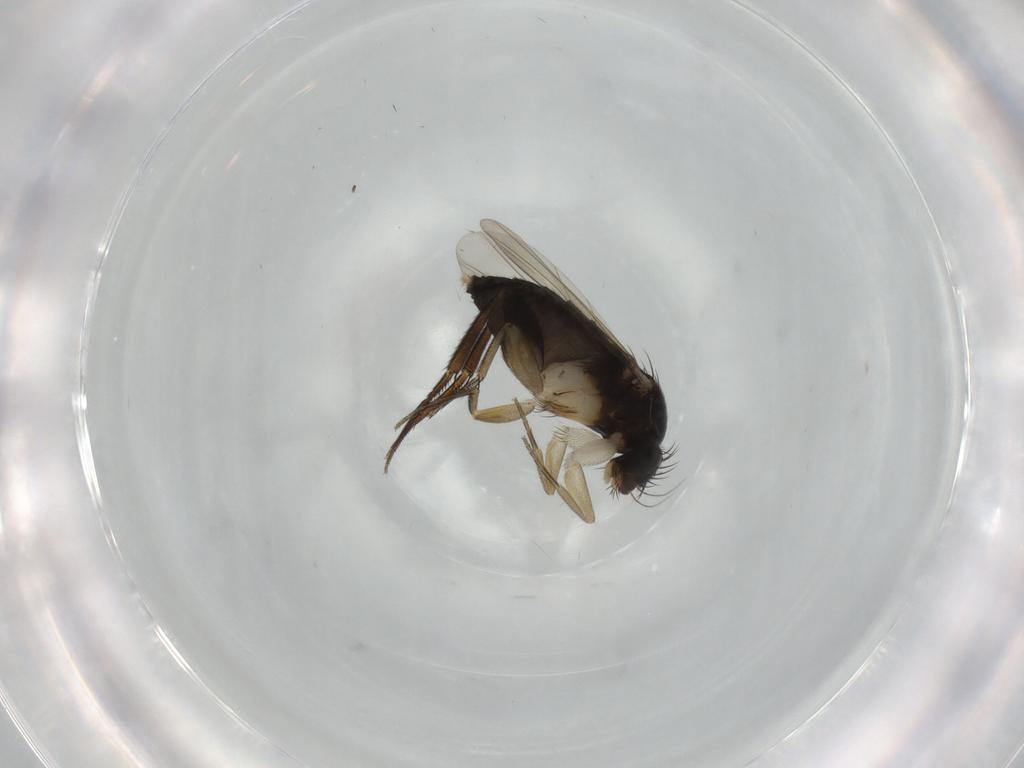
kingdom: Animalia
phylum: Arthropoda
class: Insecta
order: Diptera
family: Phoridae
